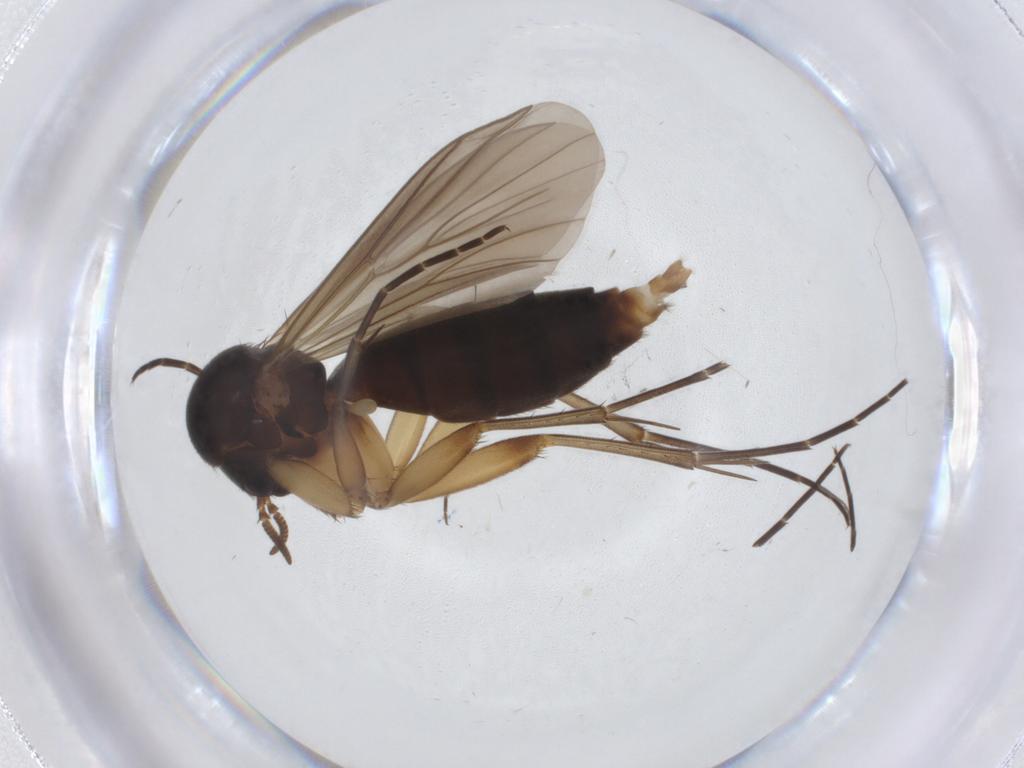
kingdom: Animalia
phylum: Arthropoda
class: Insecta
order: Diptera
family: Mycetophilidae
